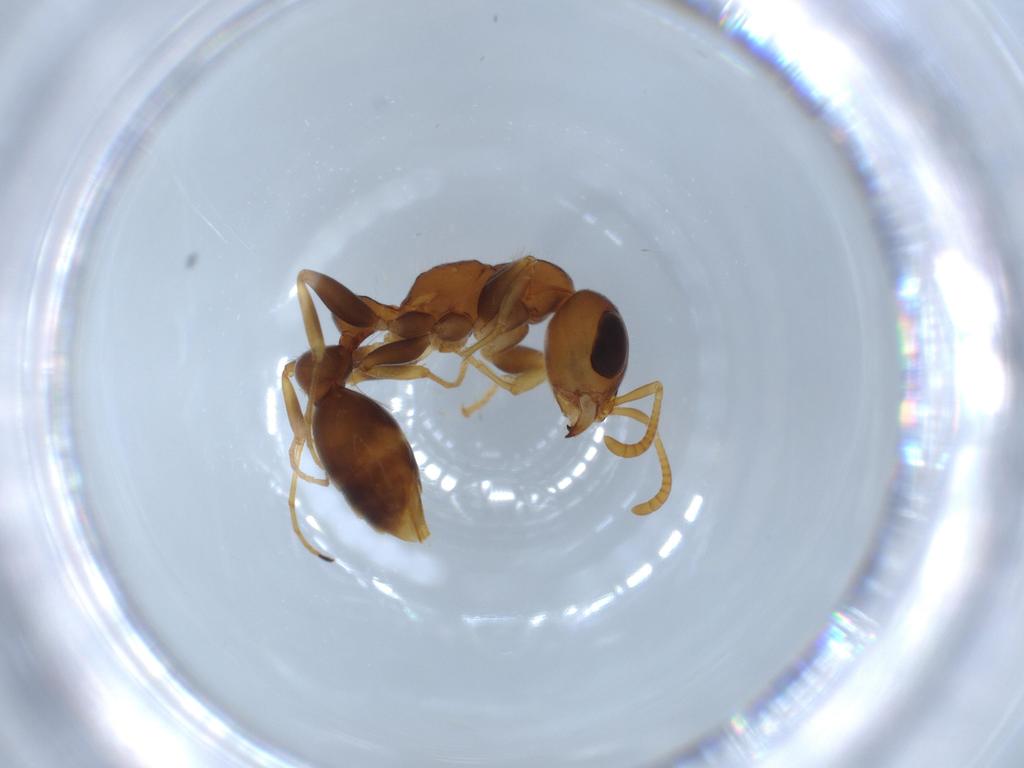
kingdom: Animalia
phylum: Arthropoda
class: Insecta
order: Hymenoptera
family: Formicidae
